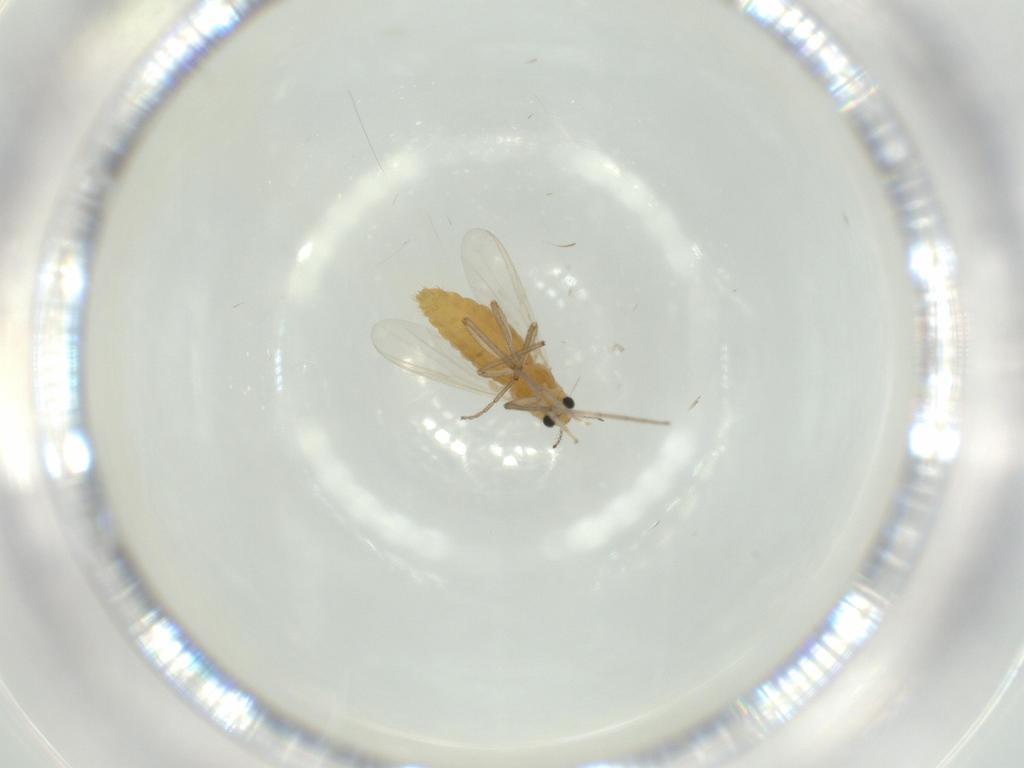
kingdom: Animalia
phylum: Arthropoda
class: Insecta
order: Diptera
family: Chironomidae
